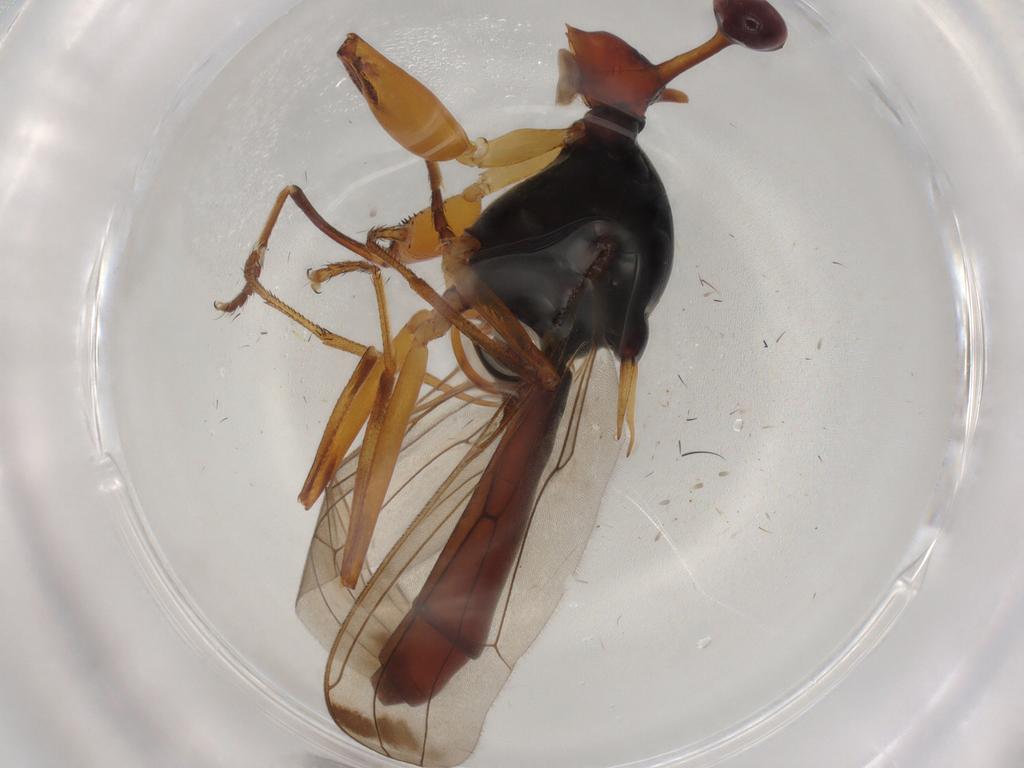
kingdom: Animalia
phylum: Arthropoda
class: Insecta
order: Diptera
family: Diopsidae
